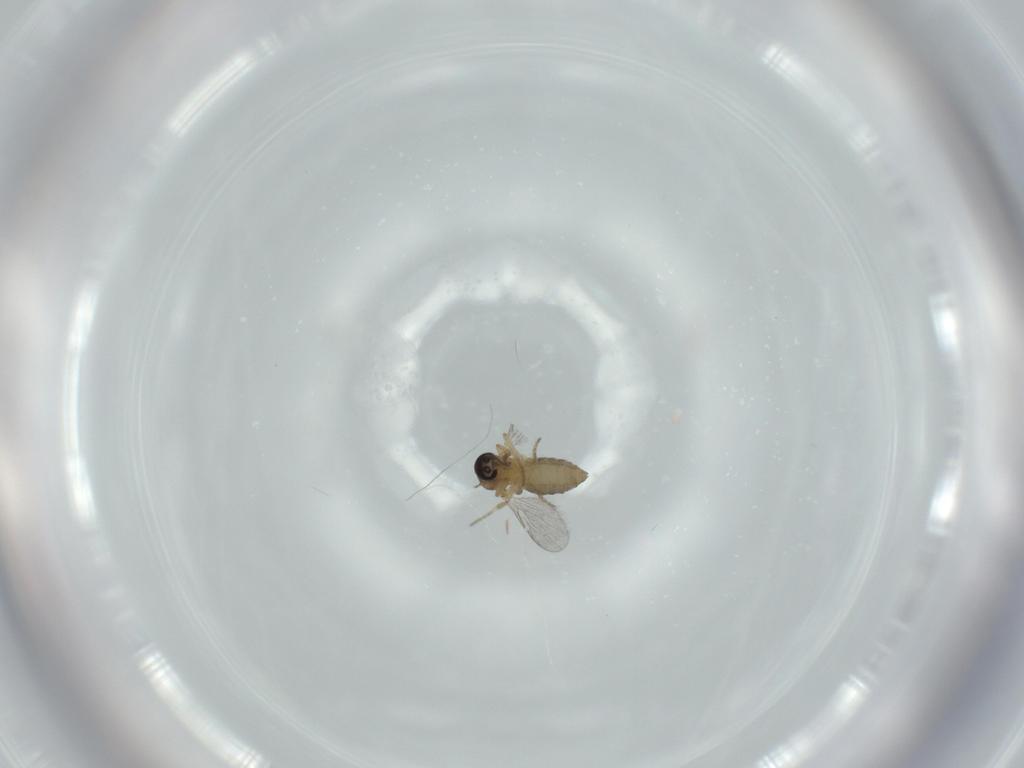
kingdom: Animalia
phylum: Arthropoda
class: Insecta
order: Diptera
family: Ceratopogonidae
